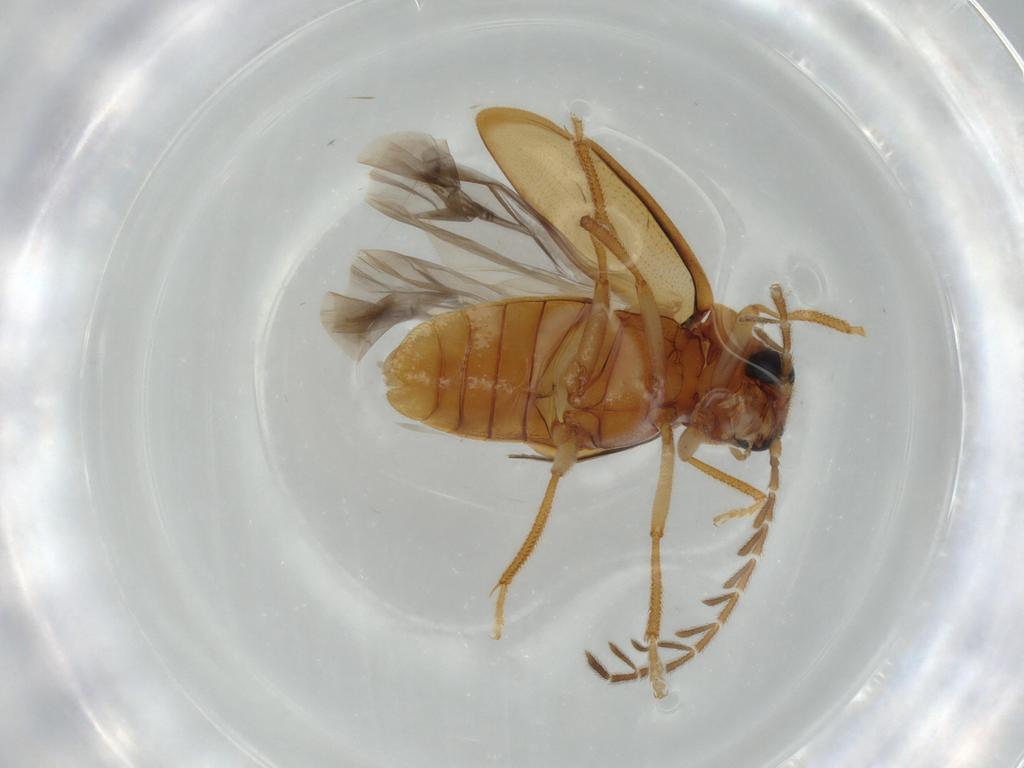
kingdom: Animalia
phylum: Arthropoda
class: Insecta
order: Coleoptera
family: Ptilodactylidae
